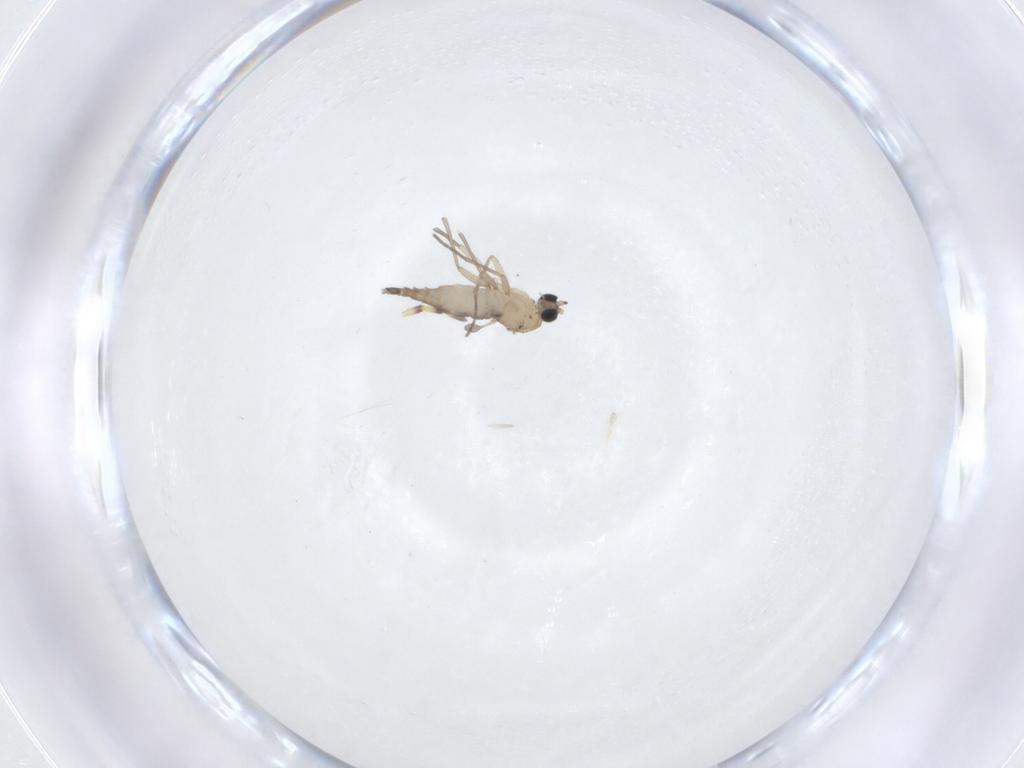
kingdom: Animalia
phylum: Arthropoda
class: Insecta
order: Diptera
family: Sciaridae
